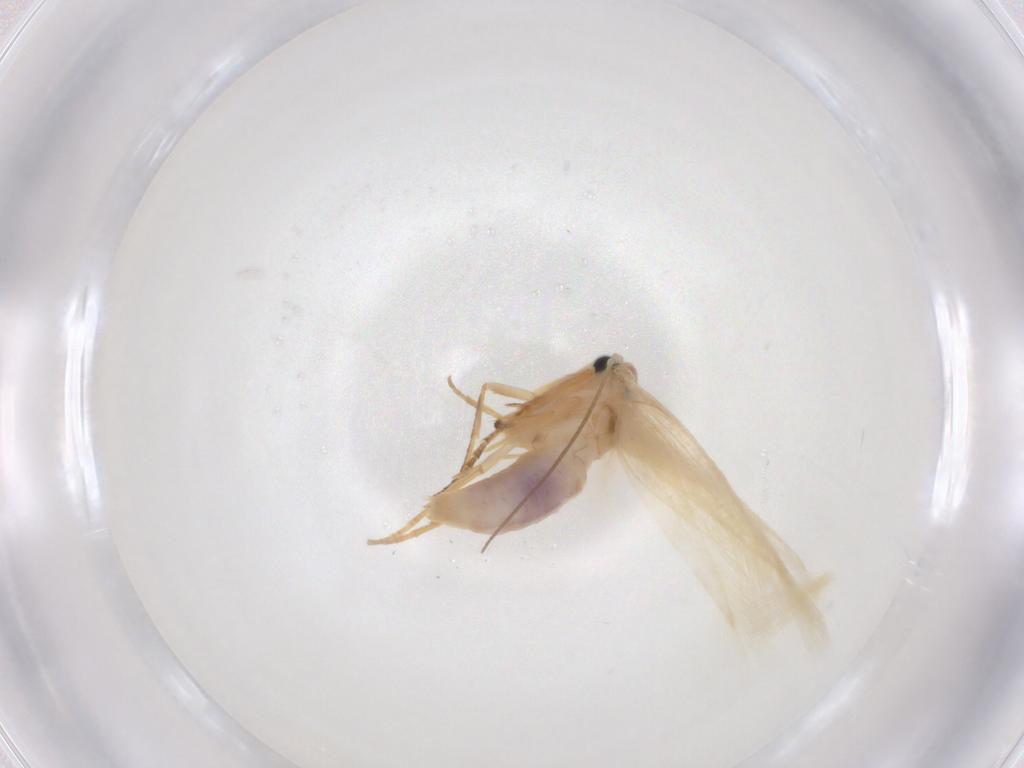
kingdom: Animalia
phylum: Arthropoda
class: Insecta
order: Lepidoptera
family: Gelechiidae
